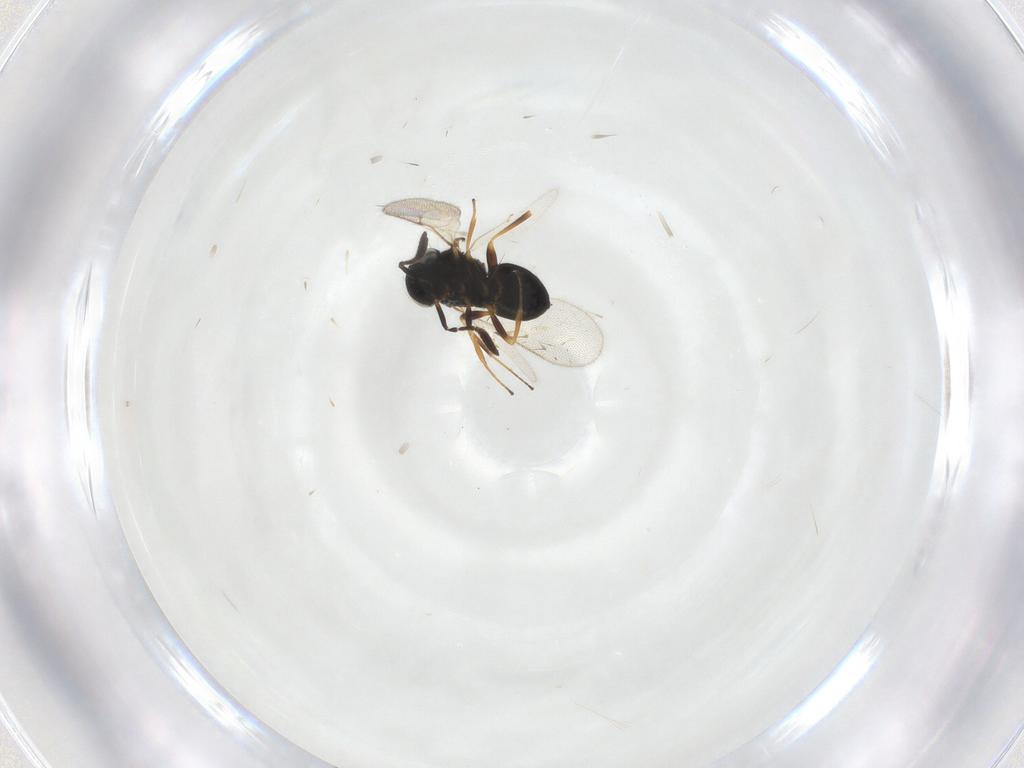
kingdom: Animalia
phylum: Arthropoda
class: Insecta
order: Hymenoptera
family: Scelionidae
